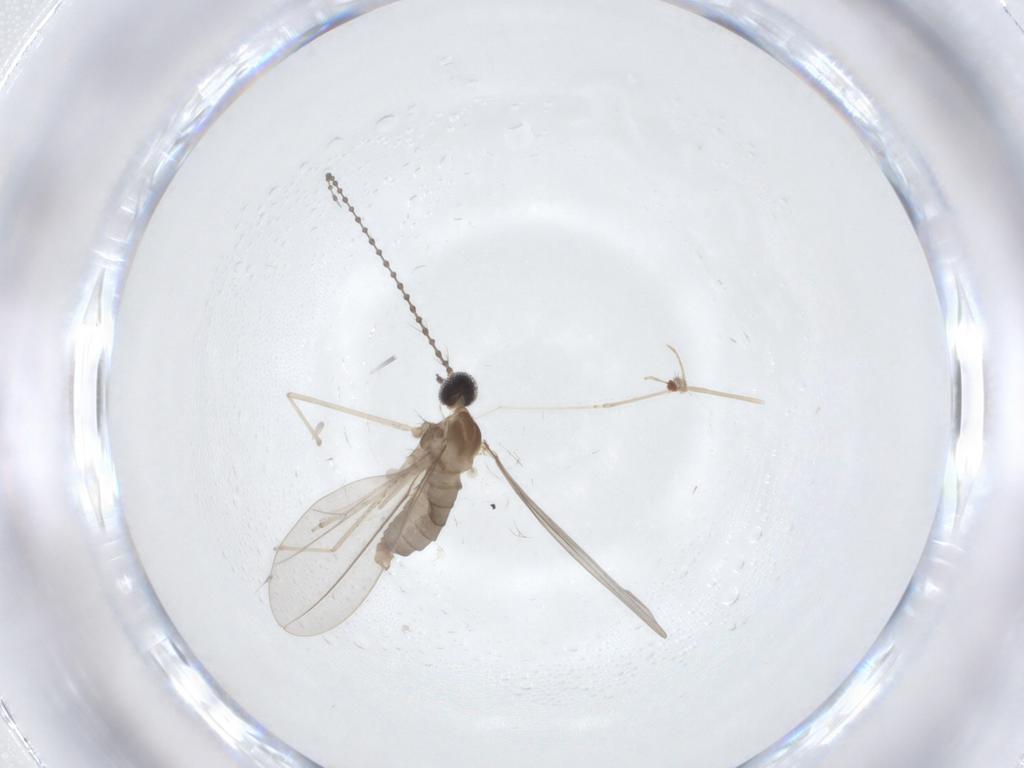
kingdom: Animalia
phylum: Arthropoda
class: Insecta
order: Diptera
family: Cecidomyiidae
